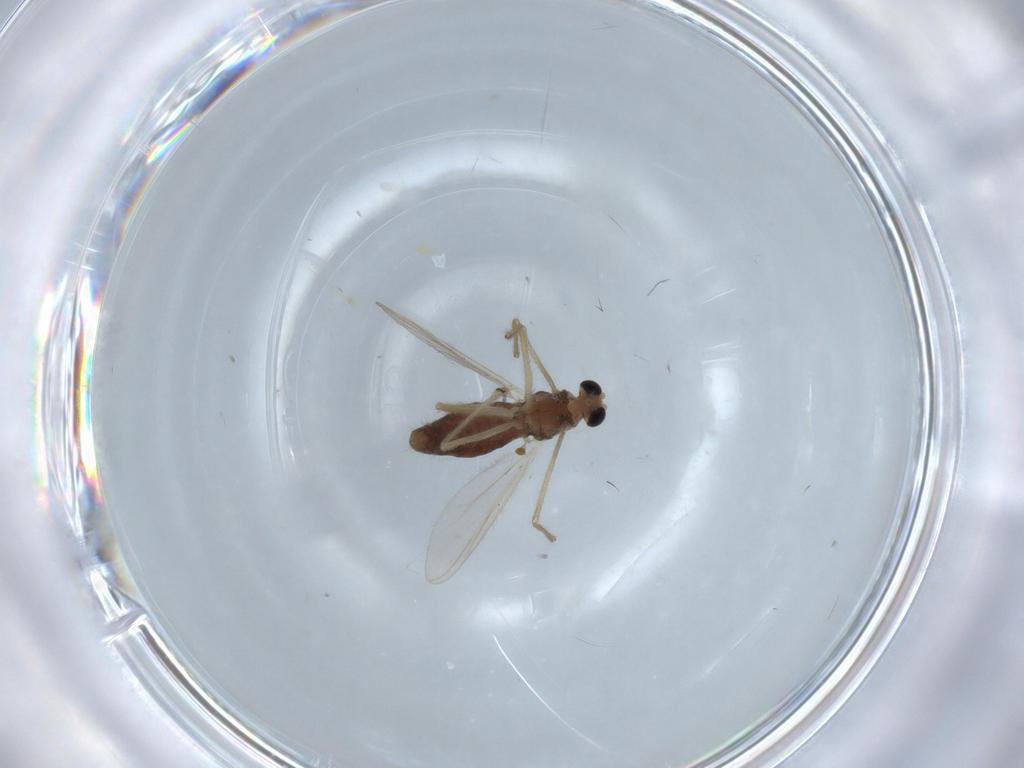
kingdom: Animalia
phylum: Arthropoda
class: Insecta
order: Diptera
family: Chironomidae
